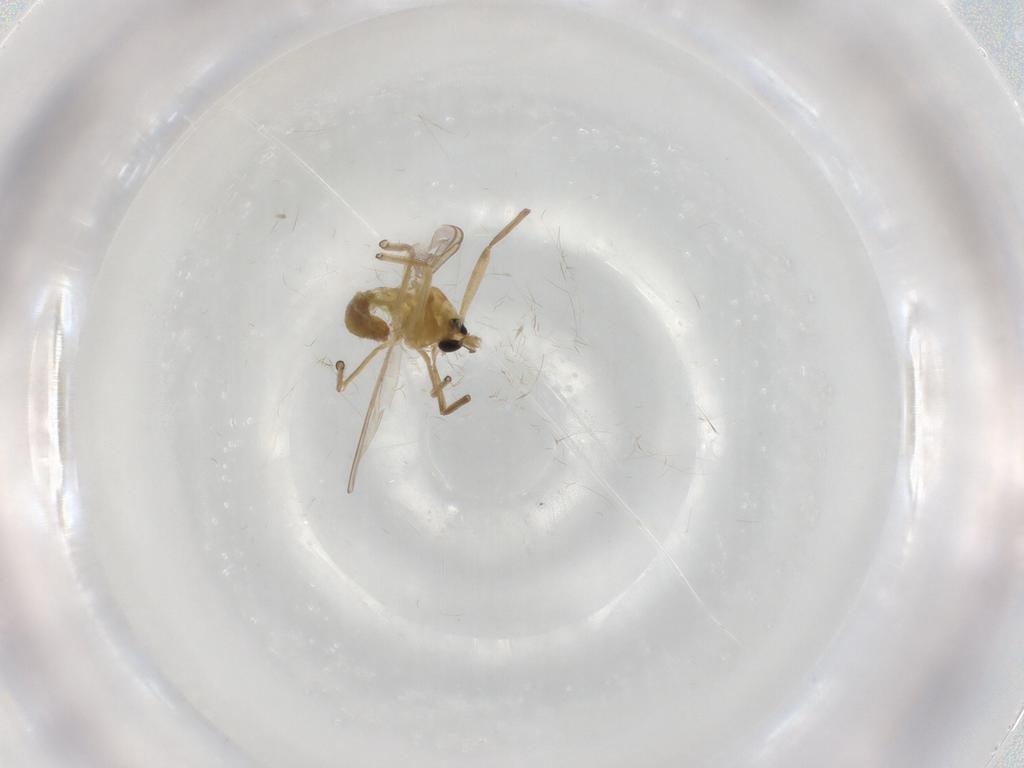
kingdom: Animalia
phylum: Arthropoda
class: Insecta
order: Diptera
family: Chironomidae
